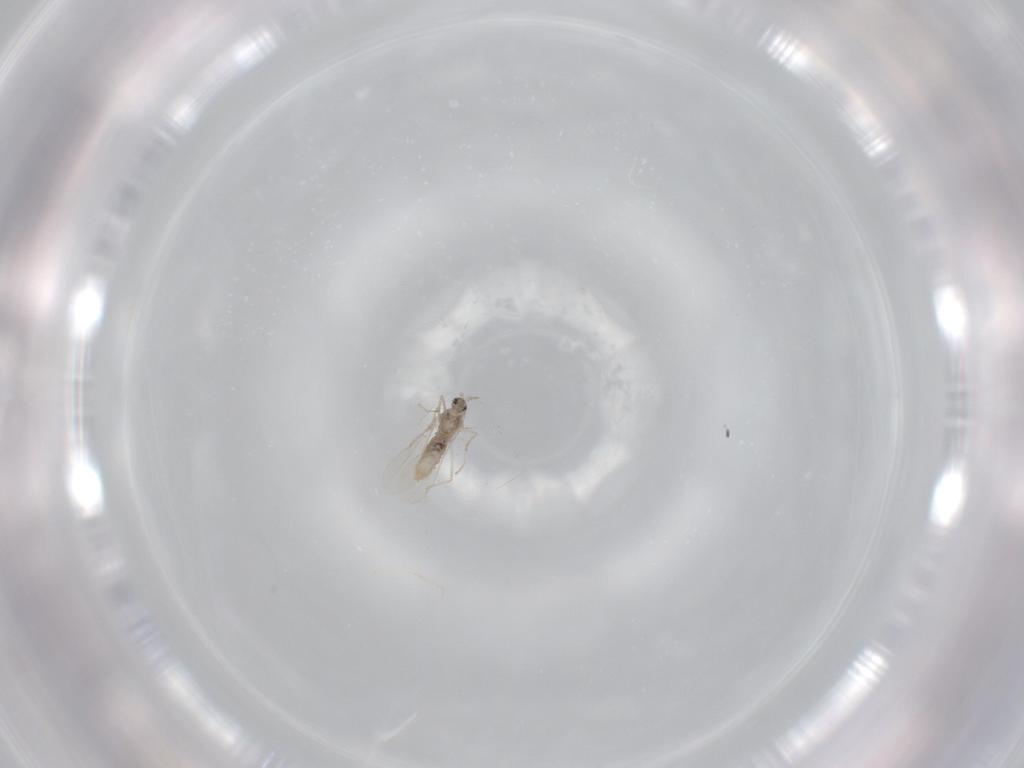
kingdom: Animalia
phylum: Arthropoda
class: Insecta
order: Diptera
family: Cecidomyiidae
